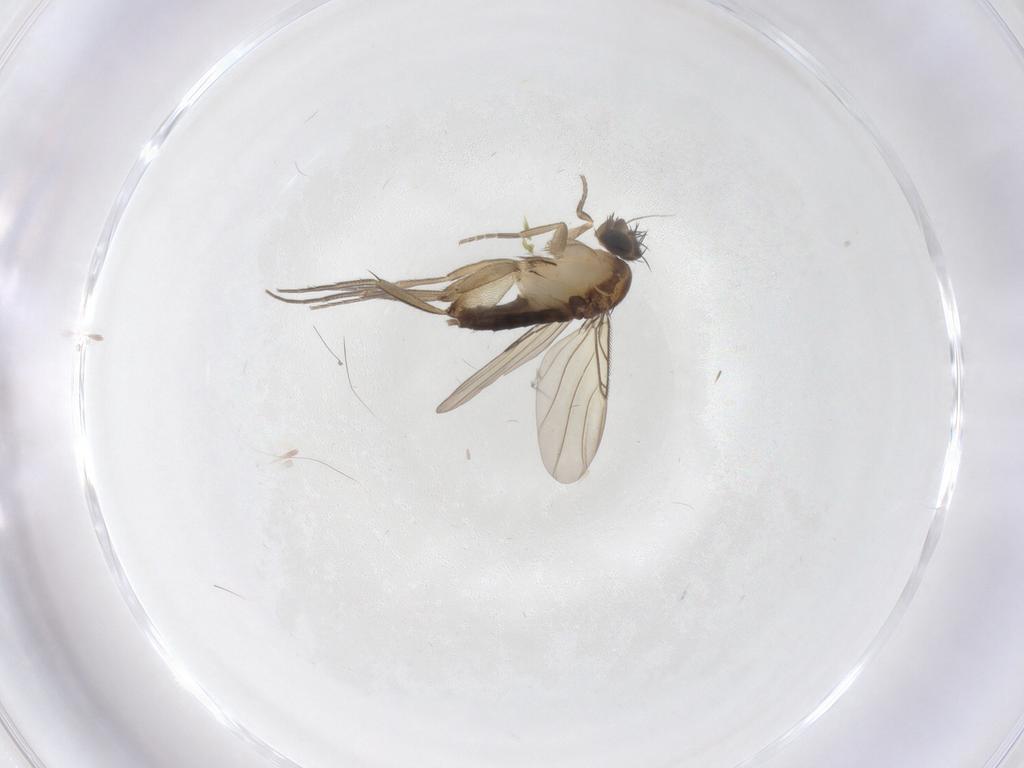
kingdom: Animalia
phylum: Arthropoda
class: Insecta
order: Diptera
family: Phoridae
